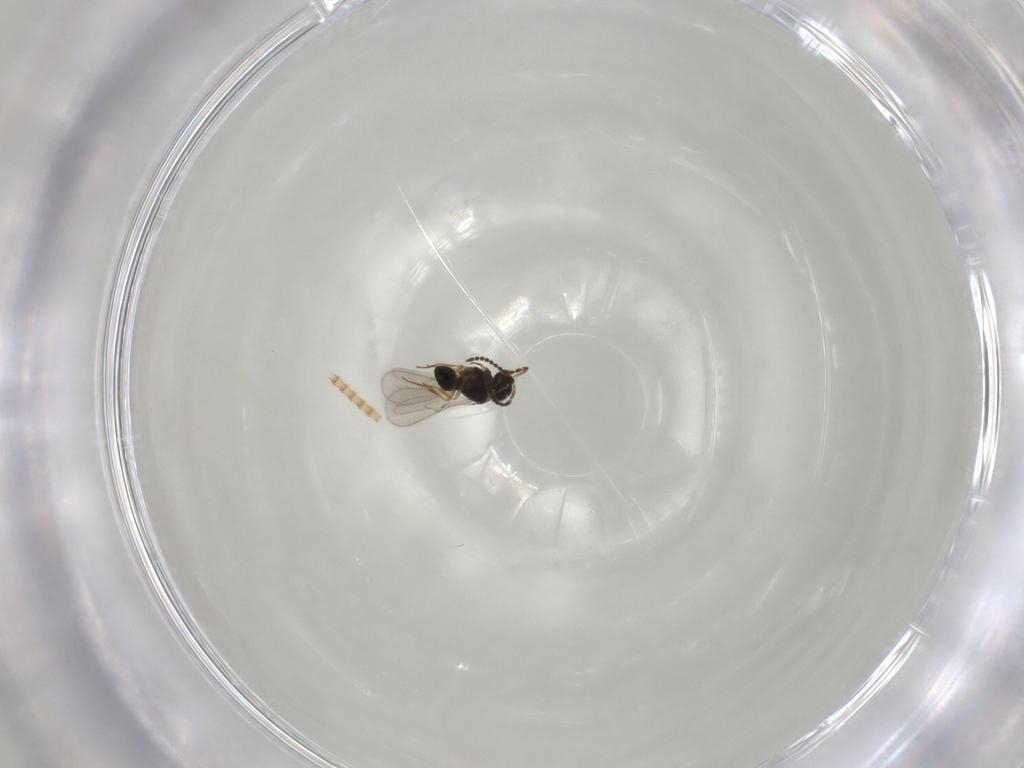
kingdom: Animalia
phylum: Arthropoda
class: Insecta
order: Hymenoptera
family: Scelionidae
